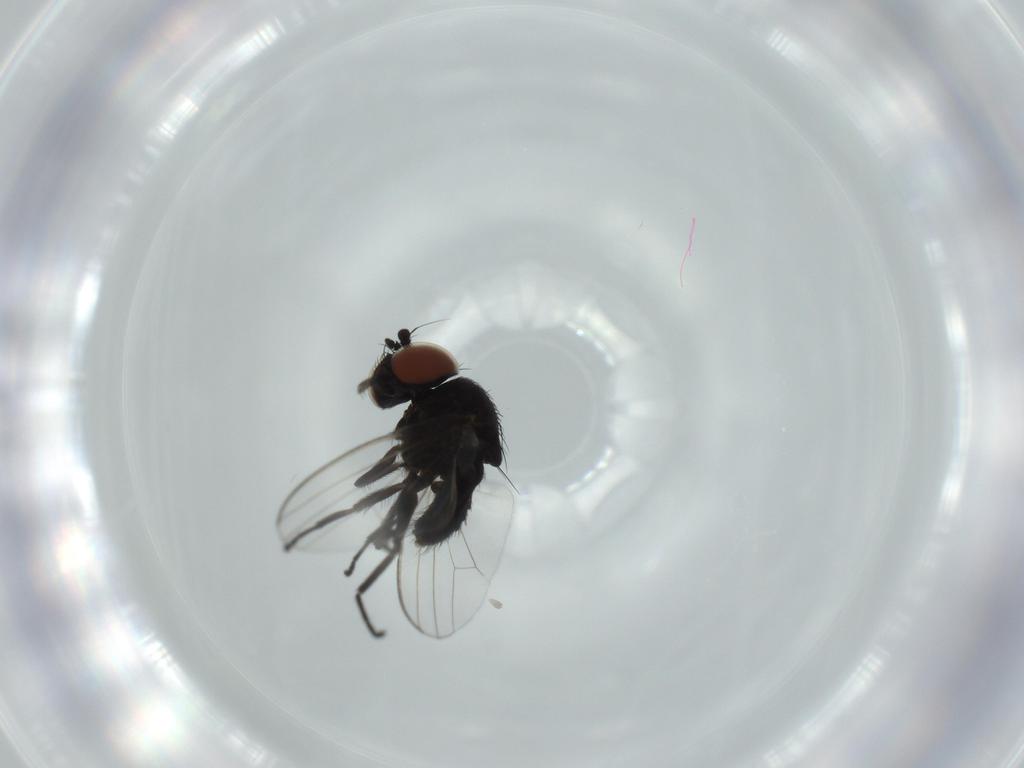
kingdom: Animalia
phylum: Arthropoda
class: Insecta
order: Diptera
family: Milichiidae
